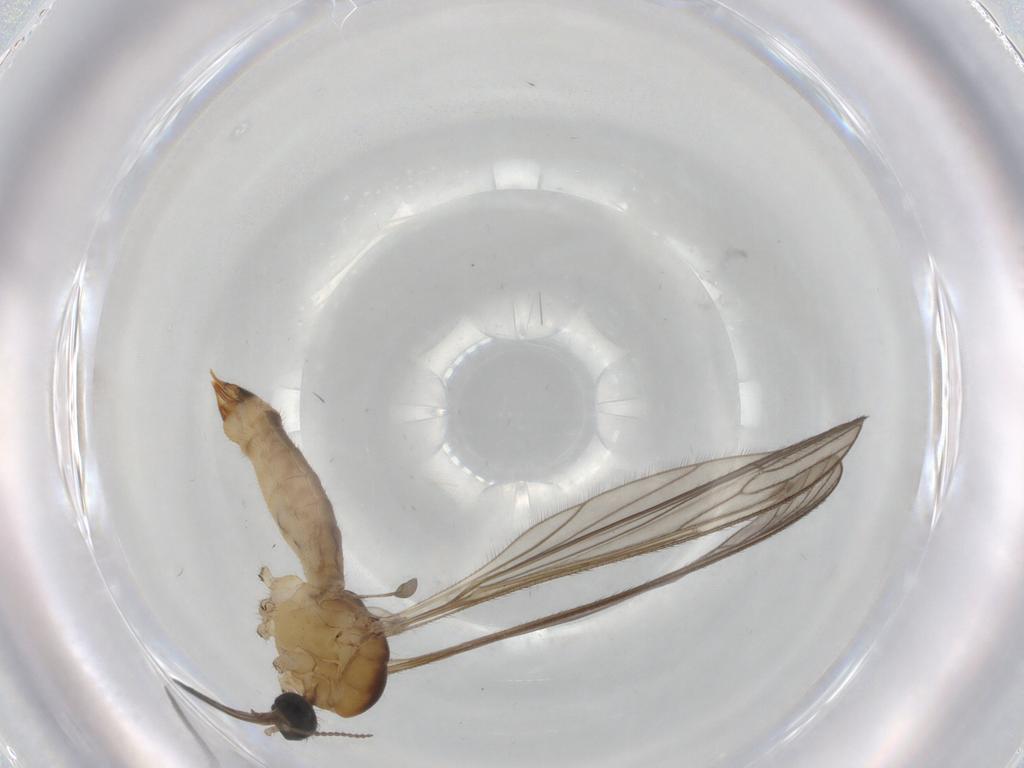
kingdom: Animalia
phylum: Arthropoda
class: Insecta
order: Diptera
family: Limoniidae
